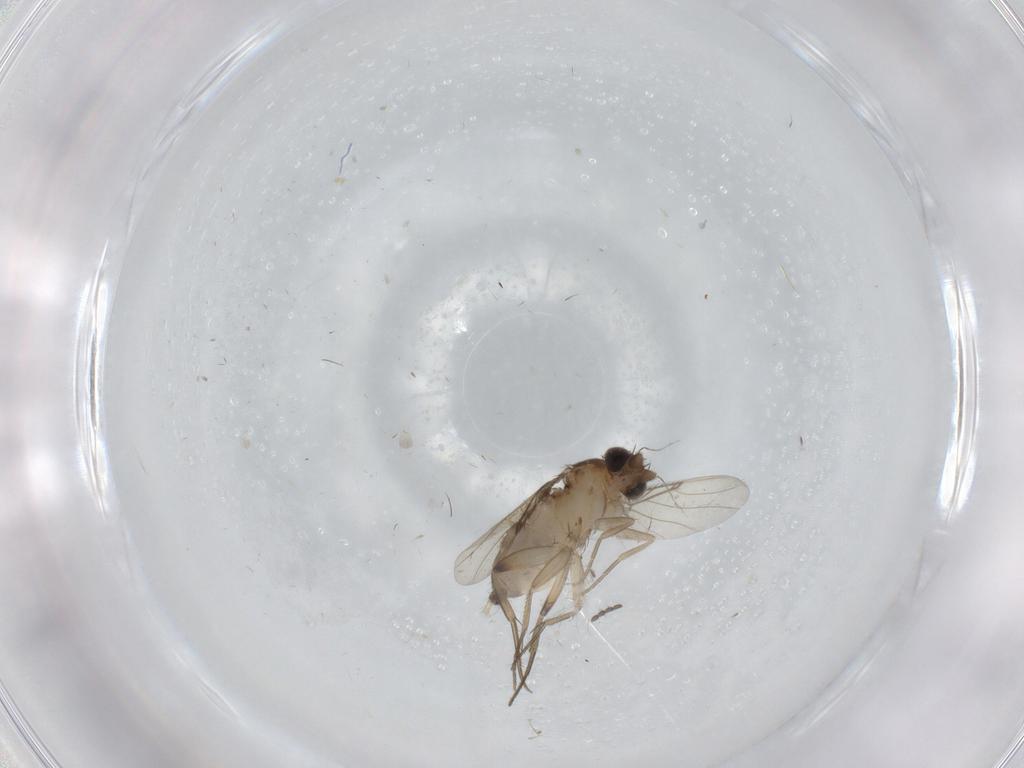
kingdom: Animalia
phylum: Arthropoda
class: Insecta
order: Diptera
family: Phoridae
